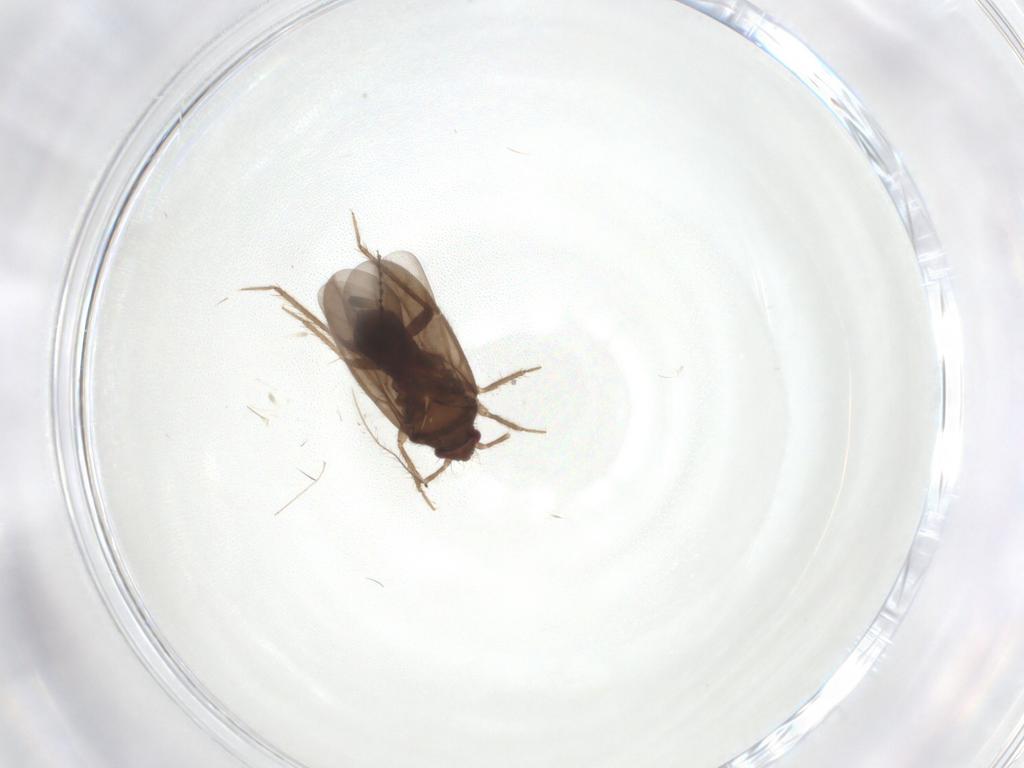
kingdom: Animalia
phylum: Arthropoda
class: Insecta
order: Hemiptera
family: Ceratocombidae
